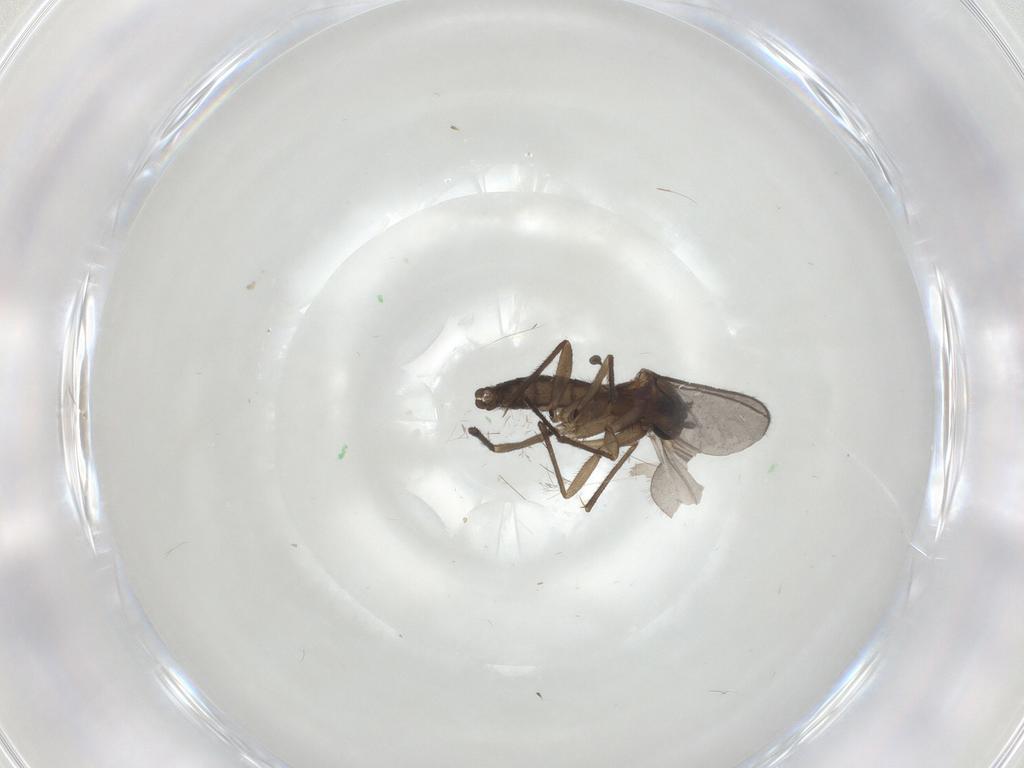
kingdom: Animalia
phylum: Arthropoda
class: Insecta
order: Diptera
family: Sciaridae
